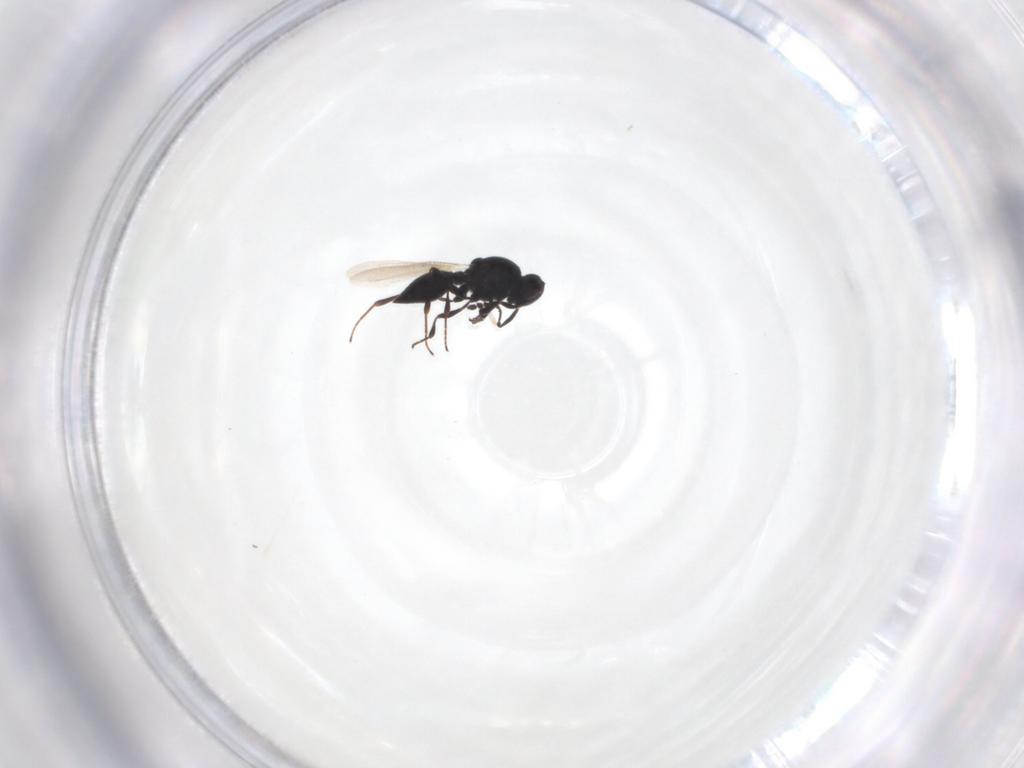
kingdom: Animalia
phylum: Arthropoda
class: Insecta
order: Hymenoptera
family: Platygastridae
